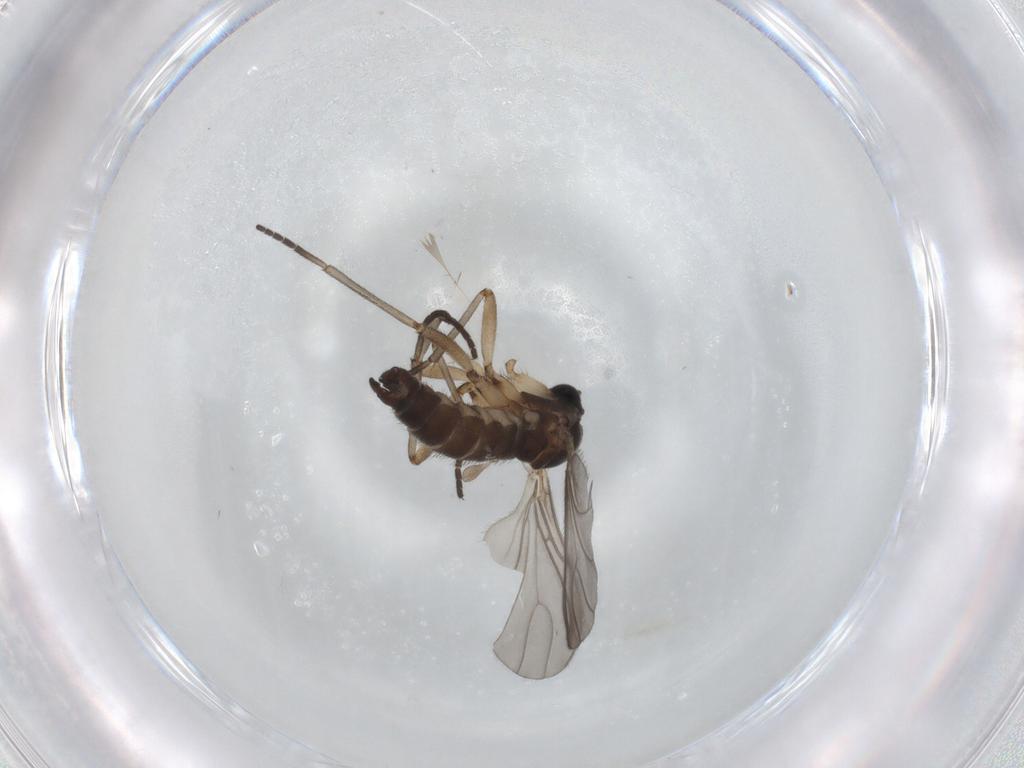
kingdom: Animalia
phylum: Arthropoda
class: Insecta
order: Diptera
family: Sciaridae
